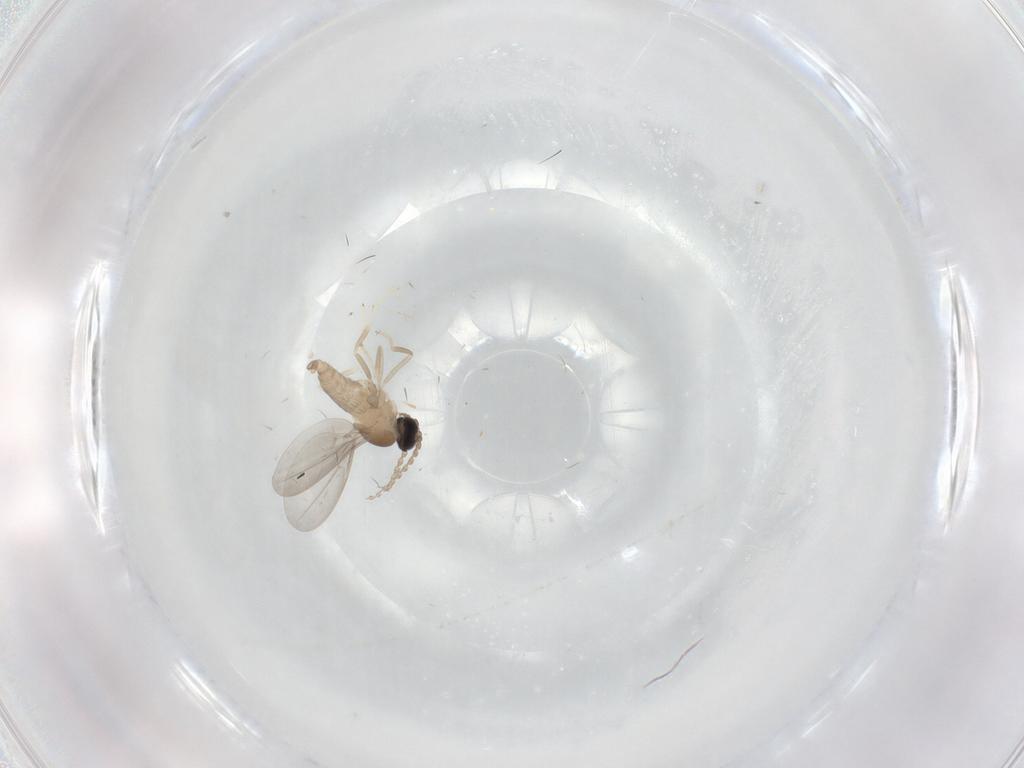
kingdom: Animalia
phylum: Arthropoda
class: Insecta
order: Diptera
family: Cecidomyiidae
